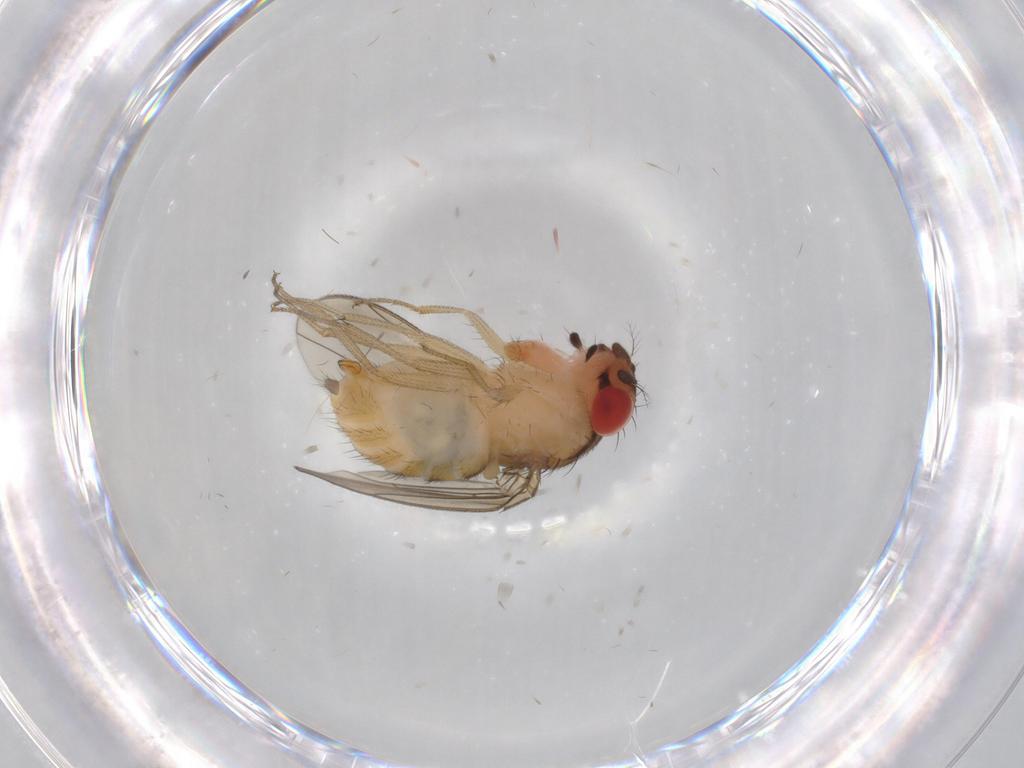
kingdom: Animalia
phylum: Arthropoda
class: Insecta
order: Diptera
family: Drosophilidae
